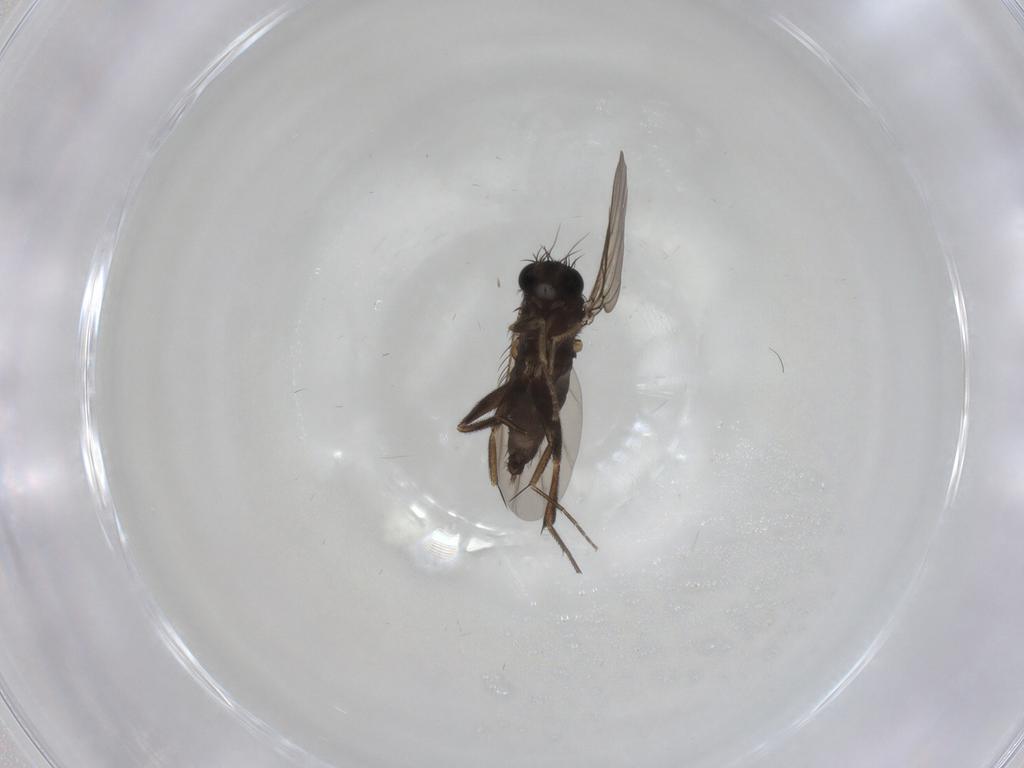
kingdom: Animalia
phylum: Arthropoda
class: Insecta
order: Diptera
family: Phoridae
